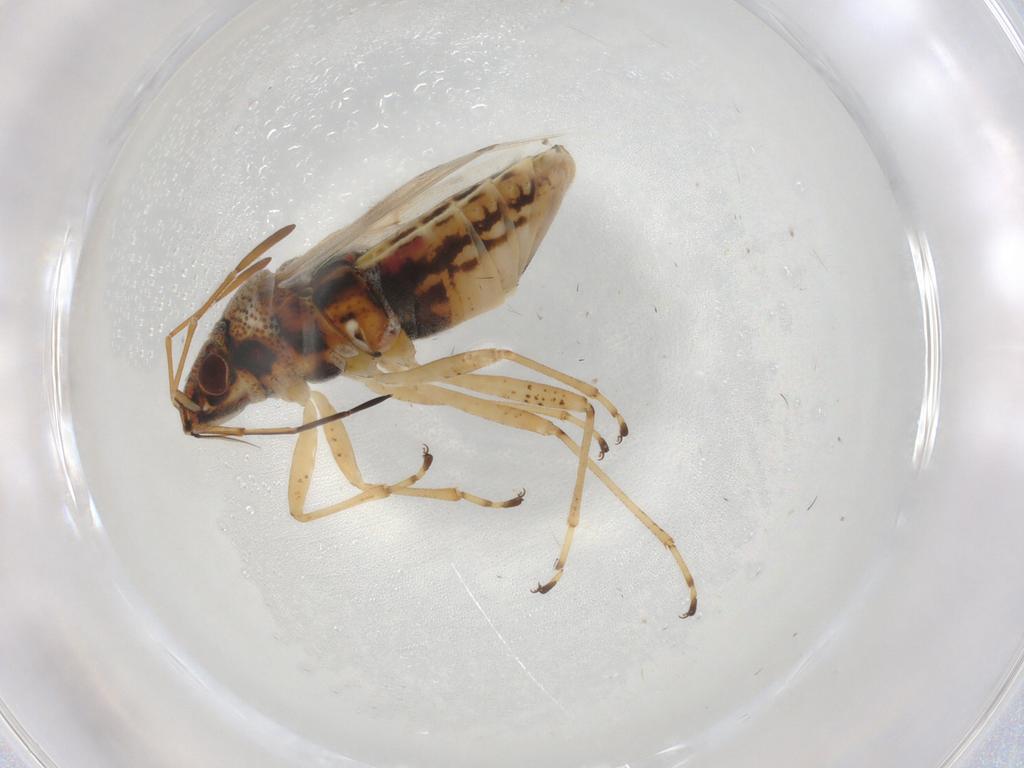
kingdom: Animalia
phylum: Arthropoda
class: Insecta
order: Hemiptera
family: Lygaeidae
